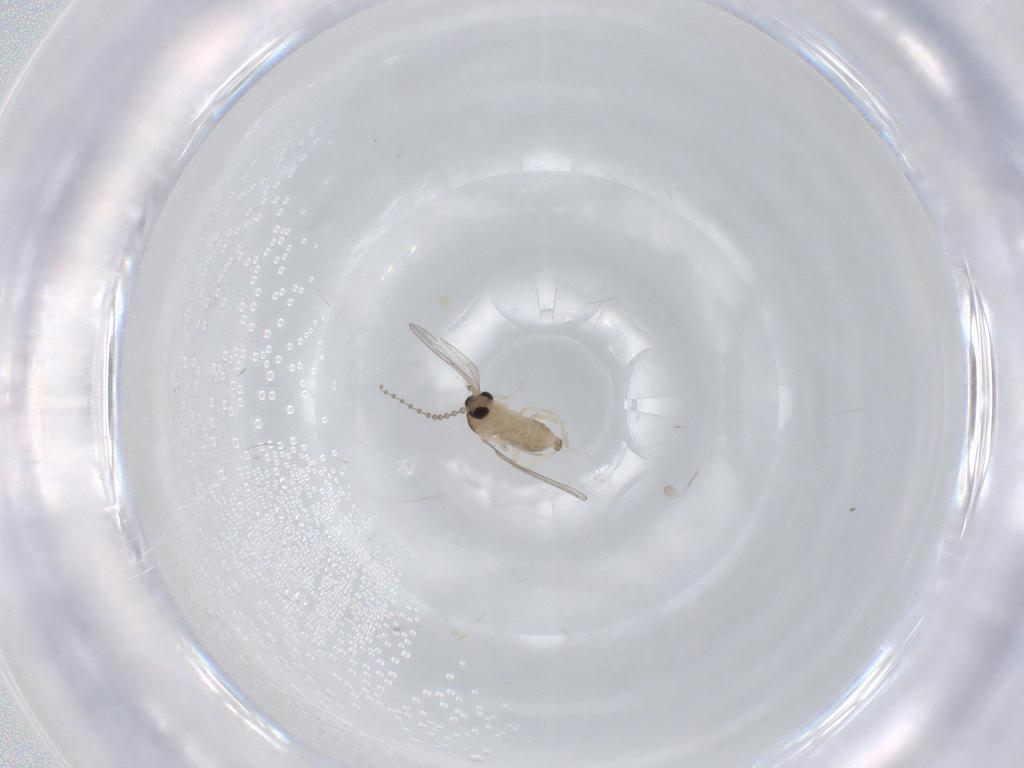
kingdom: Animalia
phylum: Arthropoda
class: Insecta
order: Diptera
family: Cecidomyiidae
